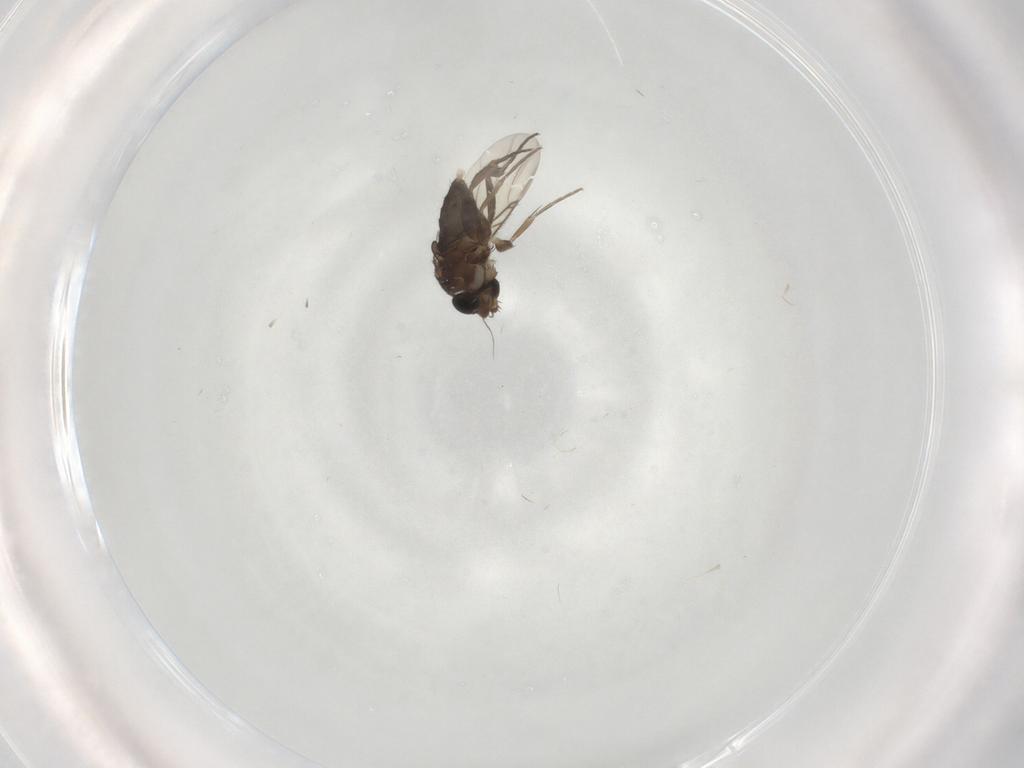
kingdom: Animalia
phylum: Arthropoda
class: Insecta
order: Diptera
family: Phoridae
